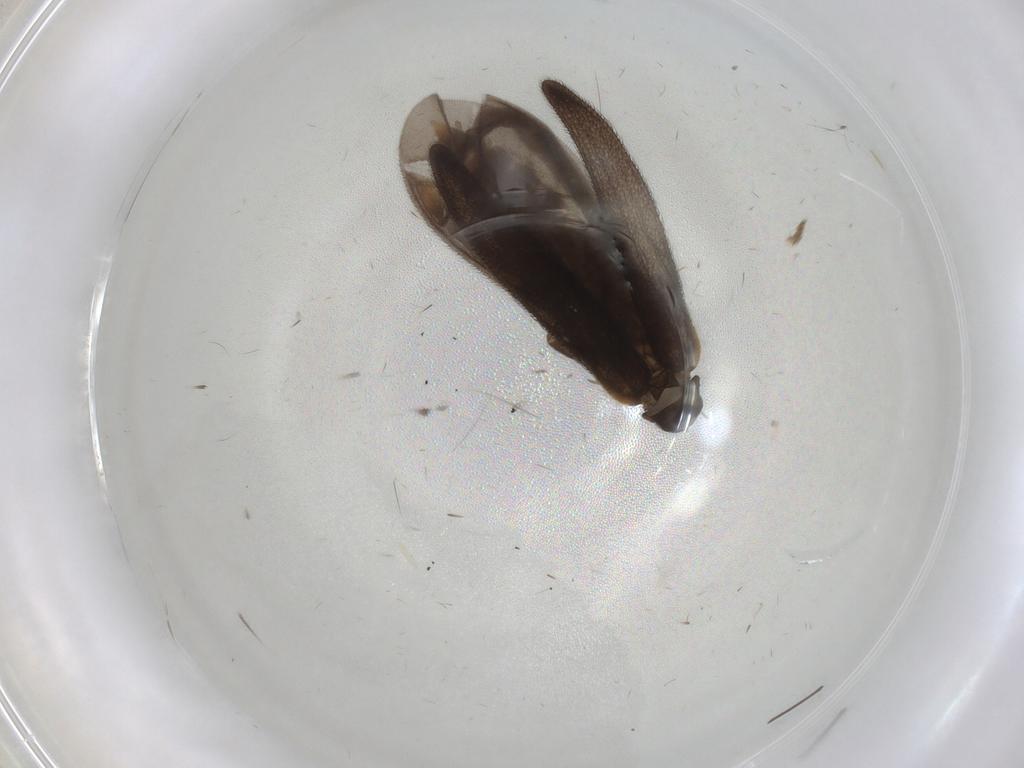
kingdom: Animalia
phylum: Arthropoda
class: Insecta
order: Coleoptera
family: Lycidae
